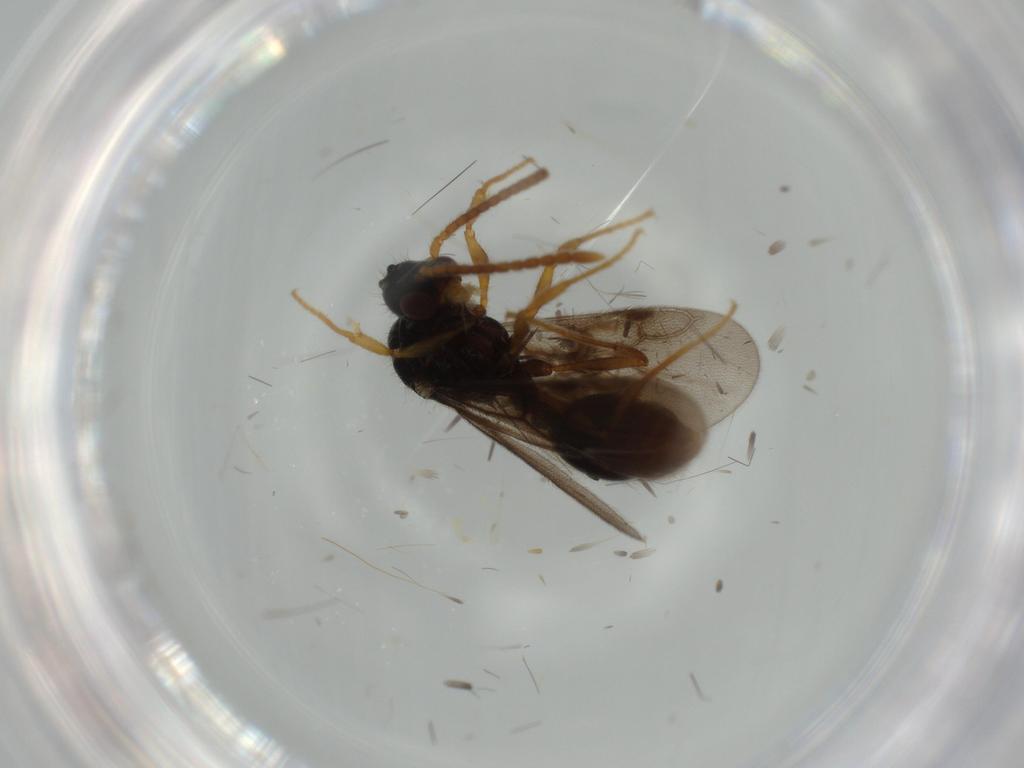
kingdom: Animalia
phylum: Arthropoda
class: Insecta
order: Hymenoptera
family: Formicidae
